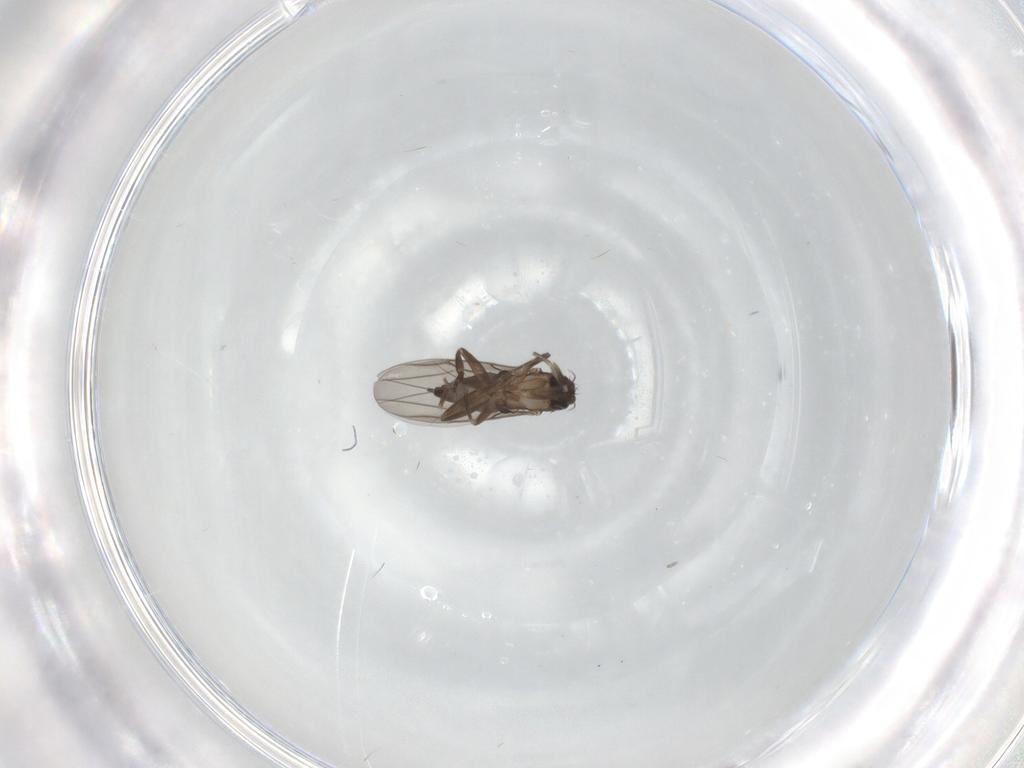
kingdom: Animalia
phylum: Arthropoda
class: Insecta
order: Diptera
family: Phoridae
